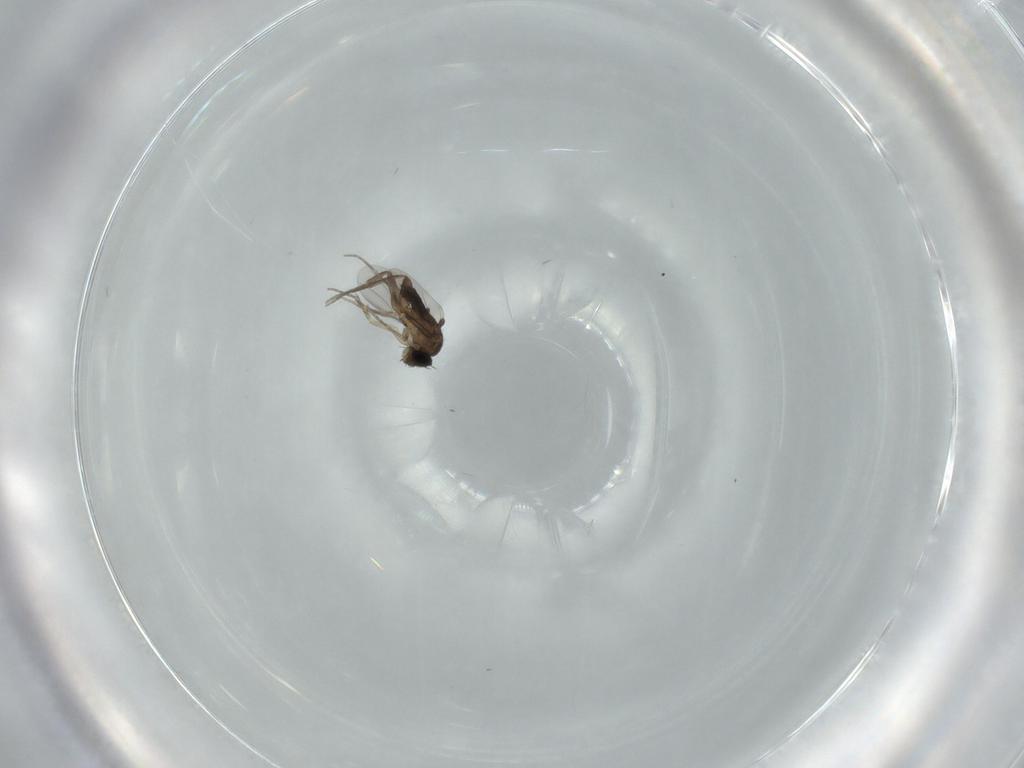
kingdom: Animalia
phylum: Arthropoda
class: Insecta
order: Diptera
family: Phoridae
